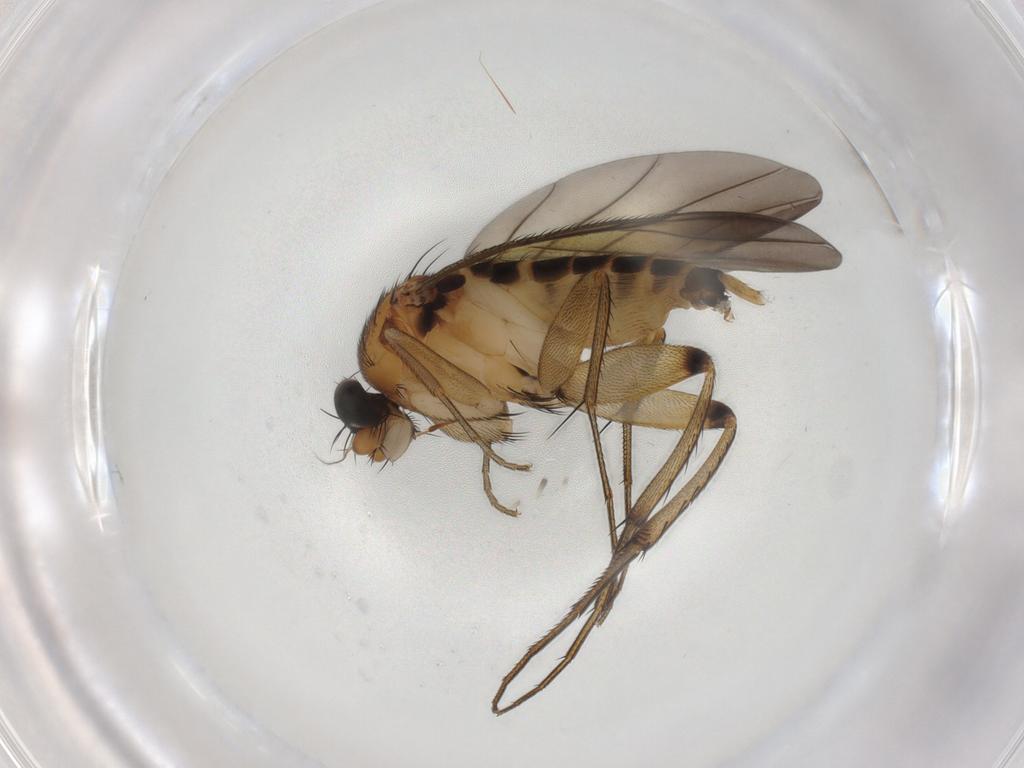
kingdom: Animalia
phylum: Arthropoda
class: Insecta
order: Diptera
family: Phoridae
